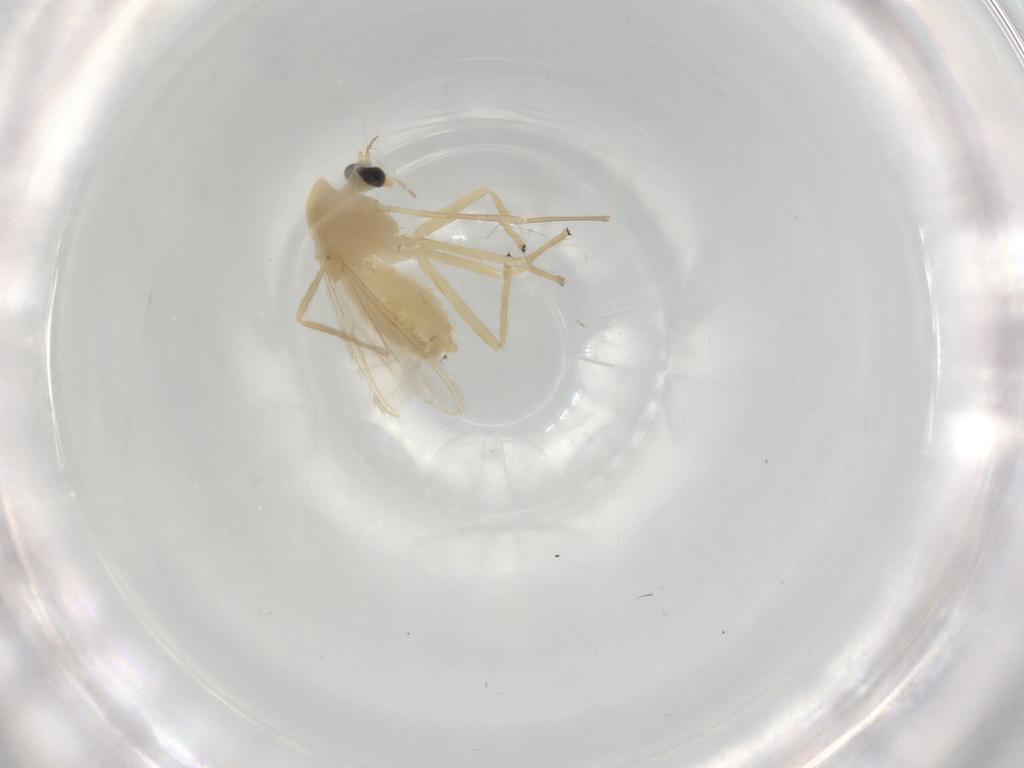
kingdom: Animalia
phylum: Arthropoda
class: Insecta
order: Diptera
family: Chironomidae
